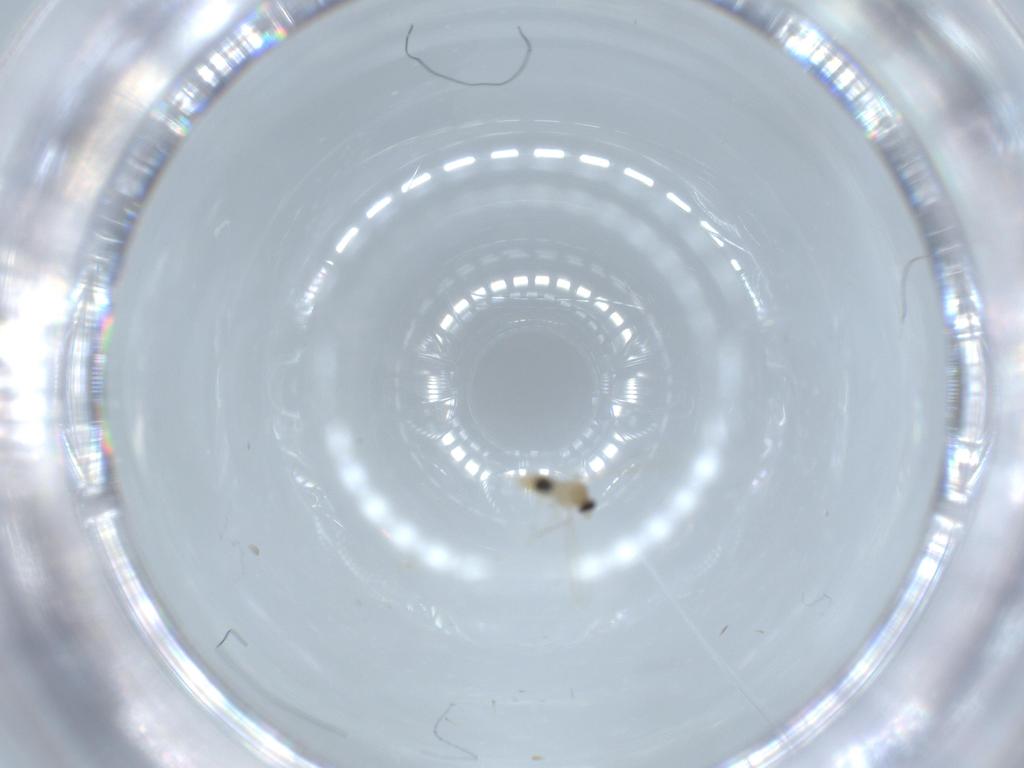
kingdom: Animalia
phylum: Arthropoda
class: Insecta
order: Diptera
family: Cecidomyiidae
